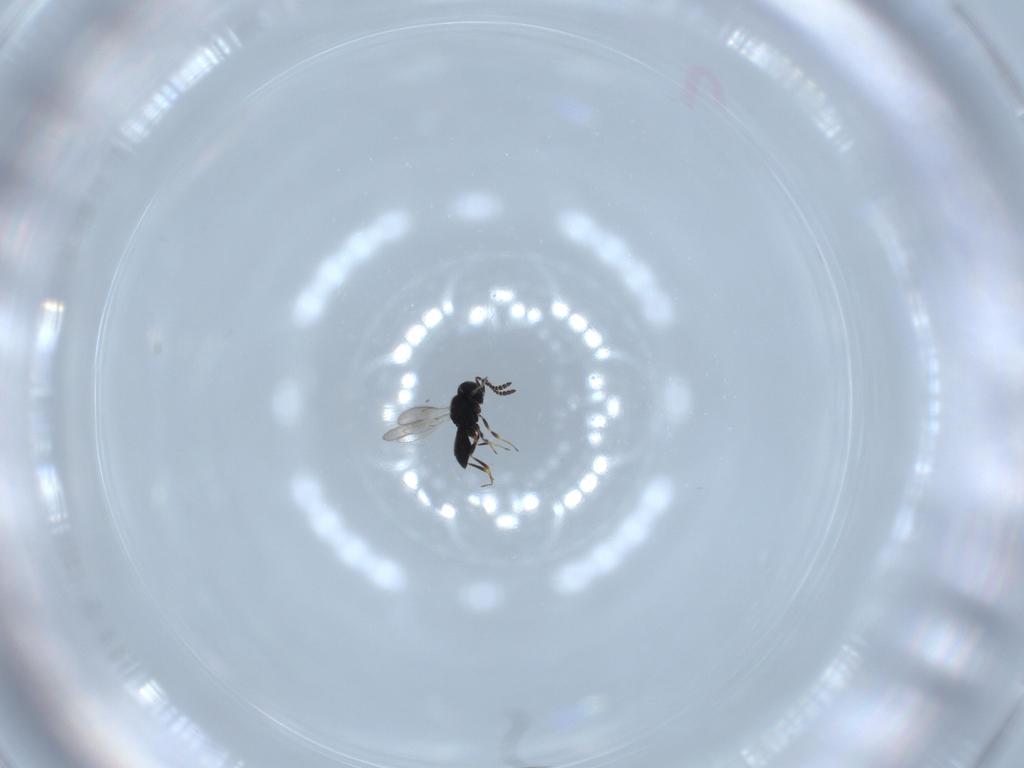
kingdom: Animalia
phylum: Arthropoda
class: Insecta
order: Hymenoptera
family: Scelionidae
